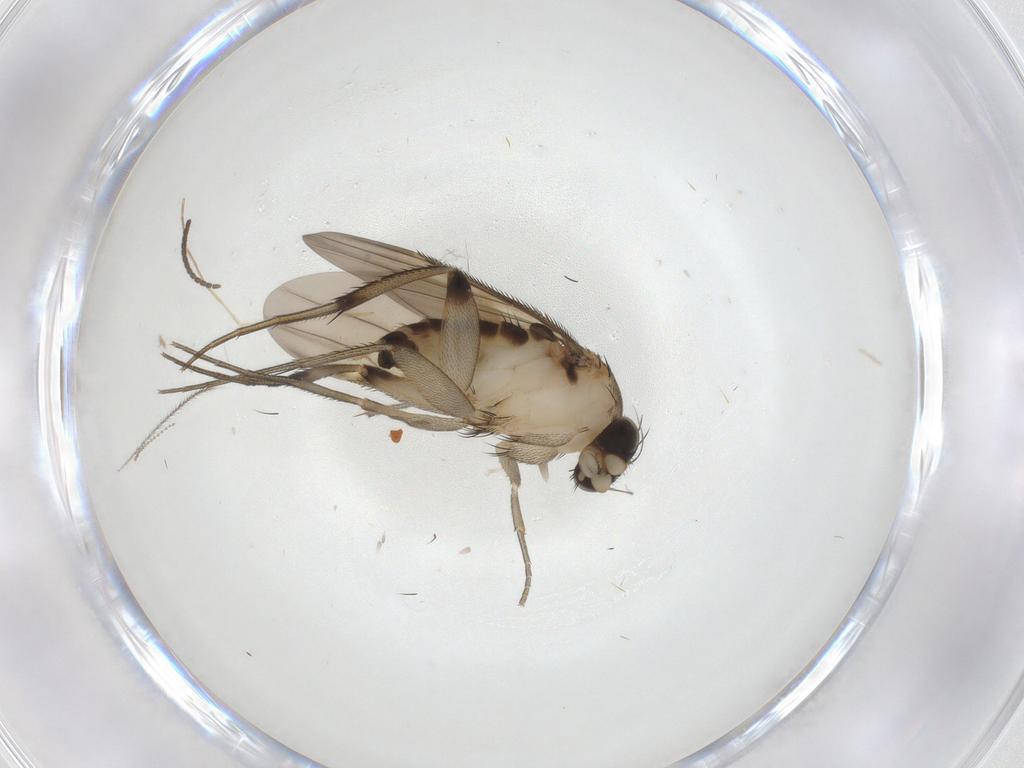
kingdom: Animalia
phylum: Arthropoda
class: Insecta
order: Diptera
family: Phoridae
